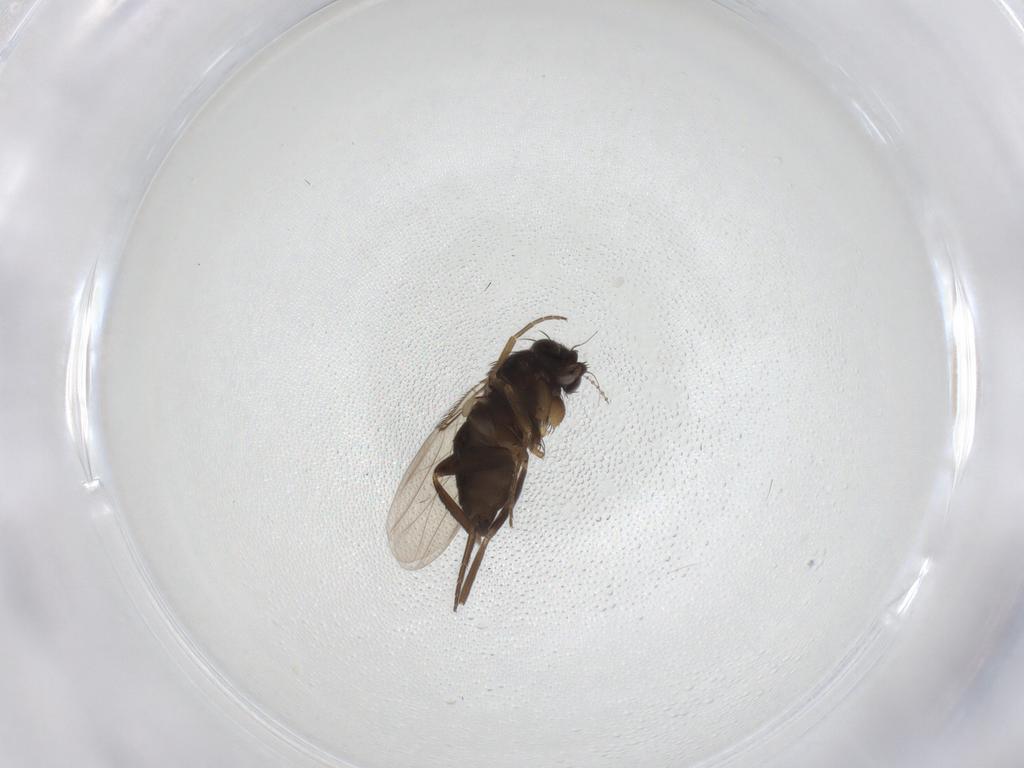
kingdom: Animalia
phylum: Arthropoda
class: Insecta
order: Diptera
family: Phoridae
